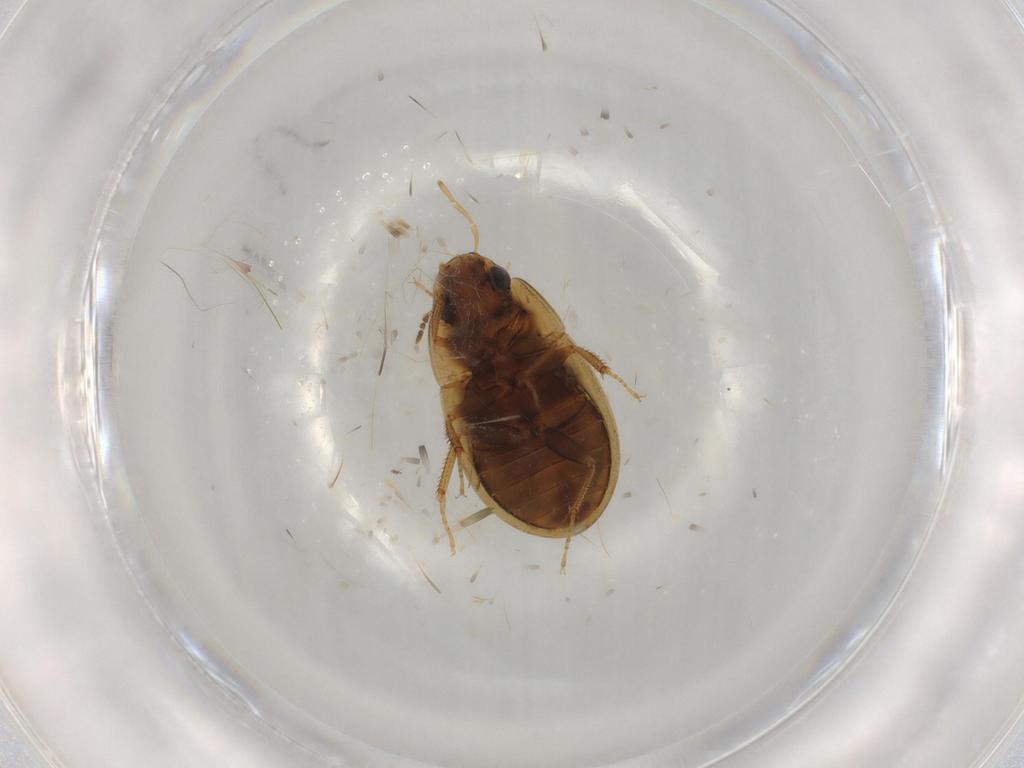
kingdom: Animalia
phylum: Arthropoda
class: Insecta
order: Coleoptera
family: Hydrophilidae
